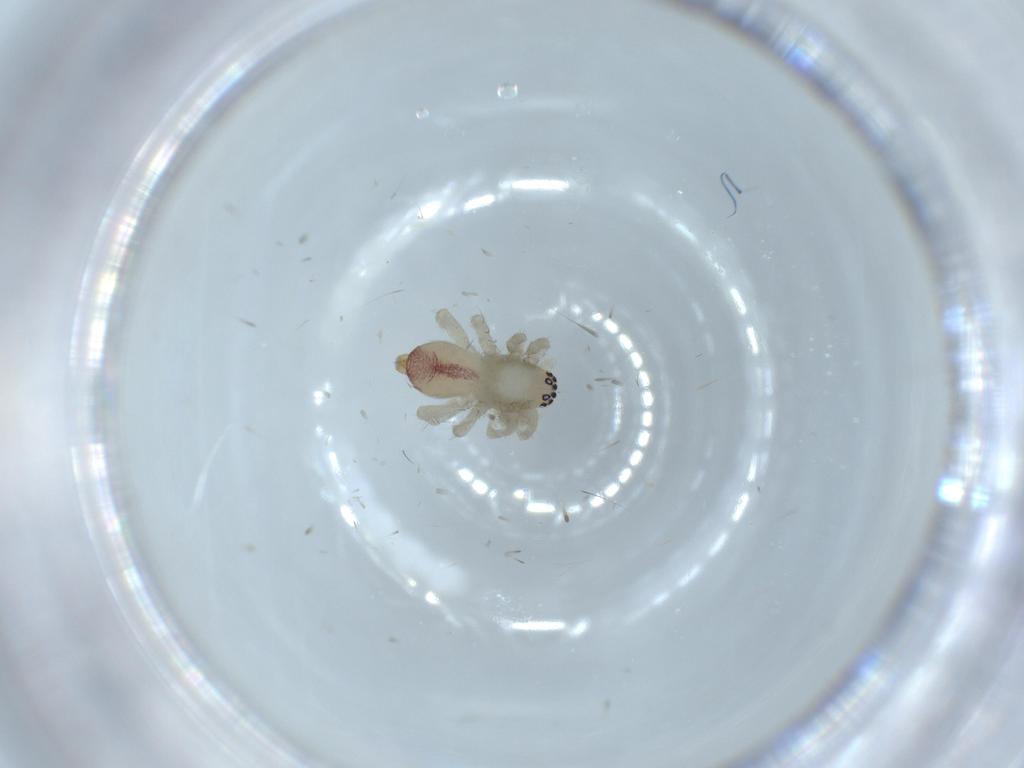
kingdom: Animalia
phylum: Arthropoda
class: Arachnida
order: Araneae
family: Clubionidae
